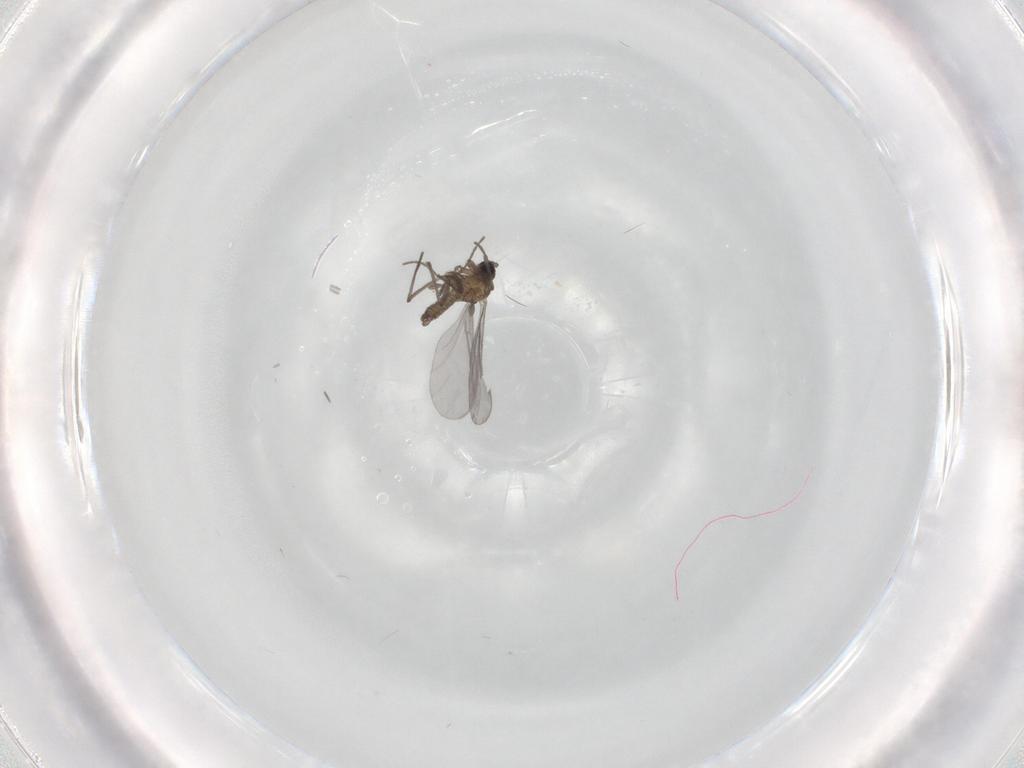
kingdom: Animalia
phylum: Arthropoda
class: Insecta
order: Diptera
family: Sciaridae
